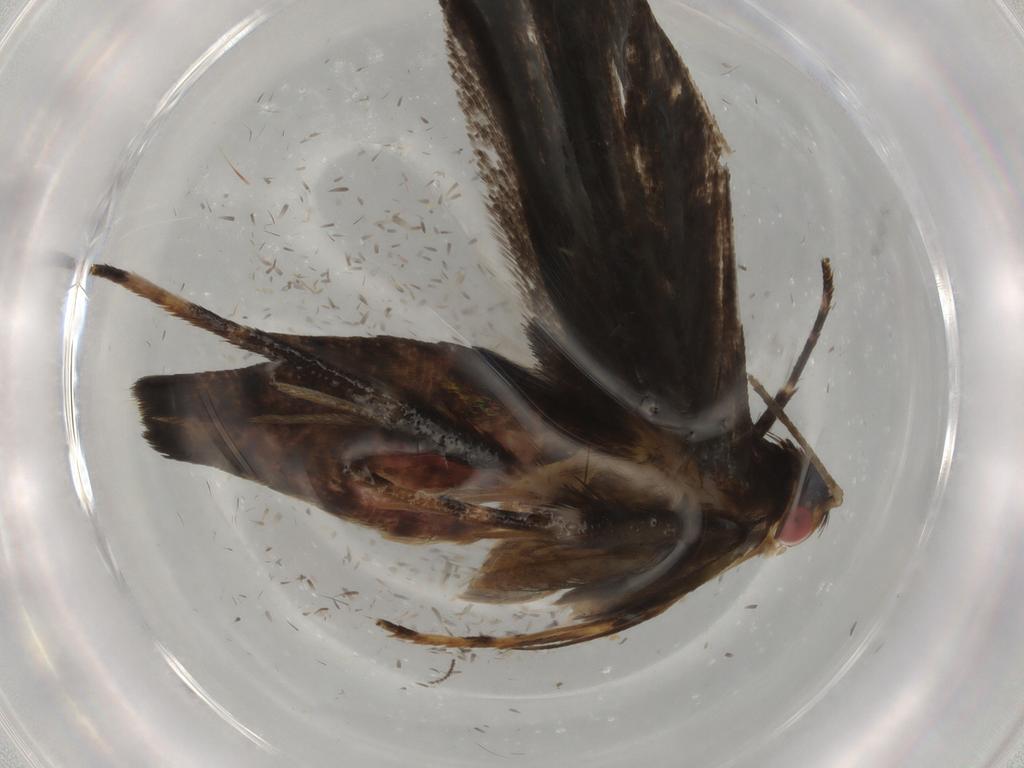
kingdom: Animalia
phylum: Arthropoda
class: Insecta
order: Lepidoptera
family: Gelechiidae
